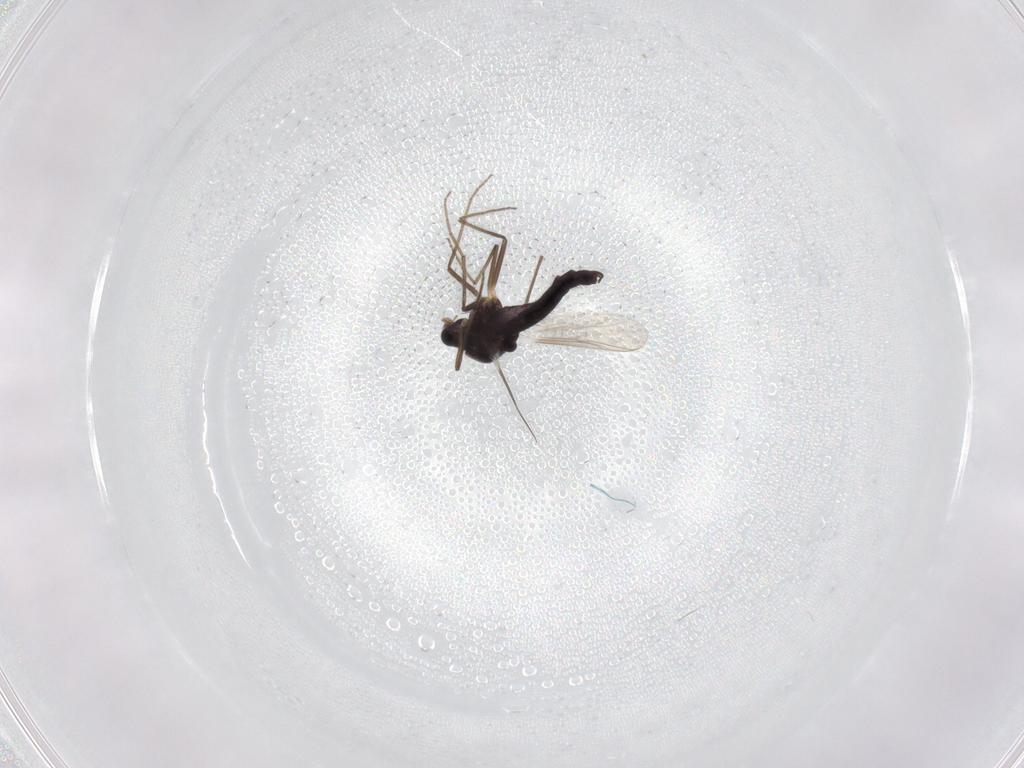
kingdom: Animalia
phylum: Arthropoda
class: Insecta
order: Diptera
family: Chironomidae
